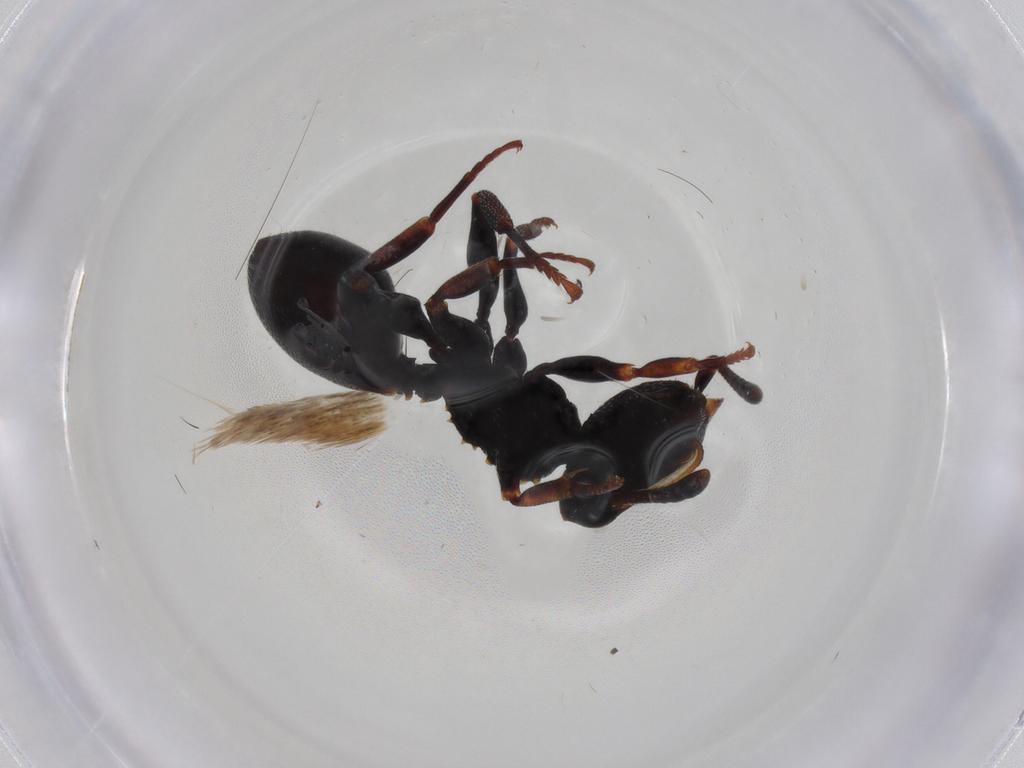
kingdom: Animalia
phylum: Arthropoda
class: Insecta
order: Hymenoptera
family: Formicidae
